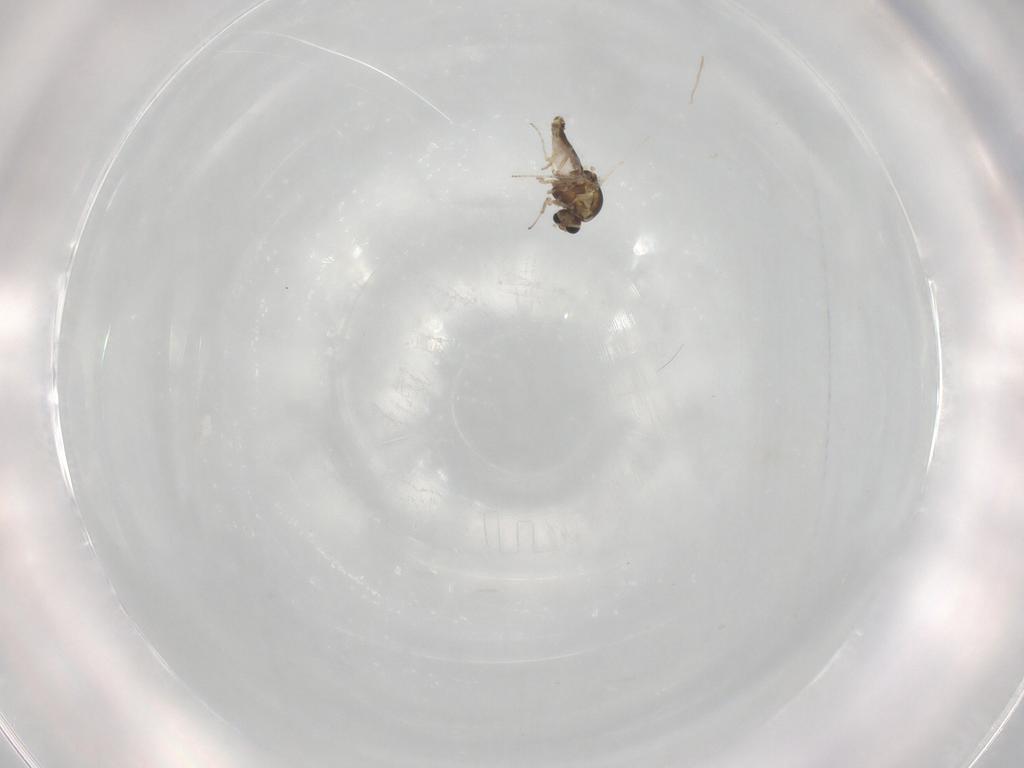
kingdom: Animalia
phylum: Arthropoda
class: Insecta
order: Diptera
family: Muscidae
